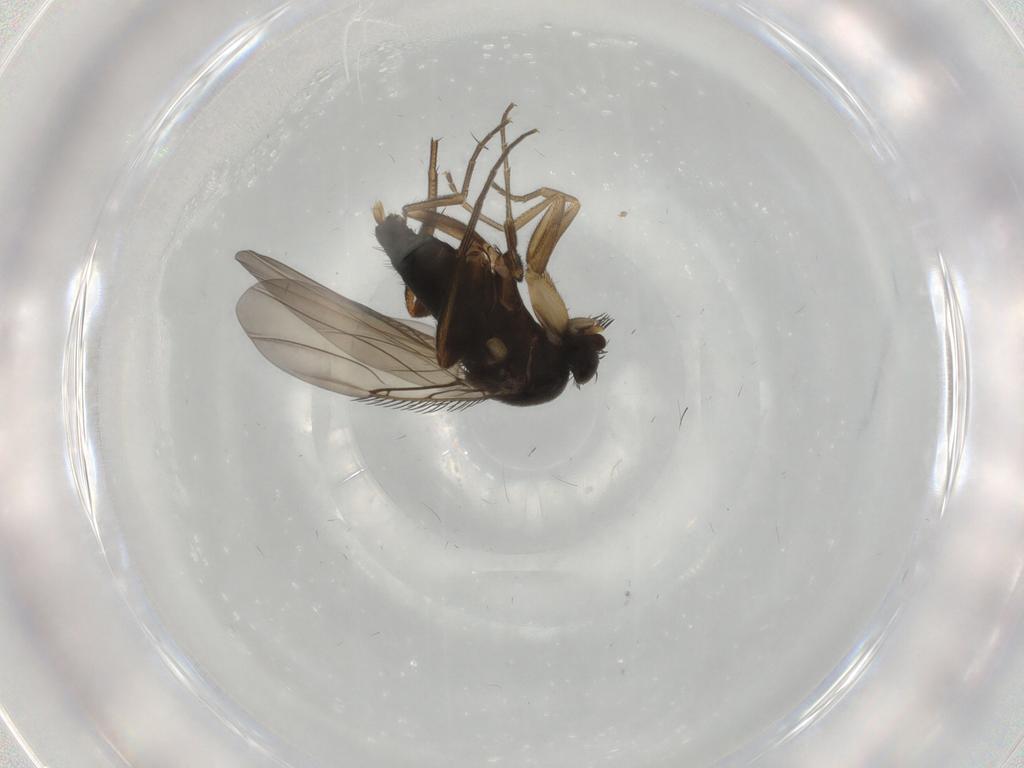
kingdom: Animalia
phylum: Arthropoda
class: Insecta
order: Diptera
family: Phoridae
